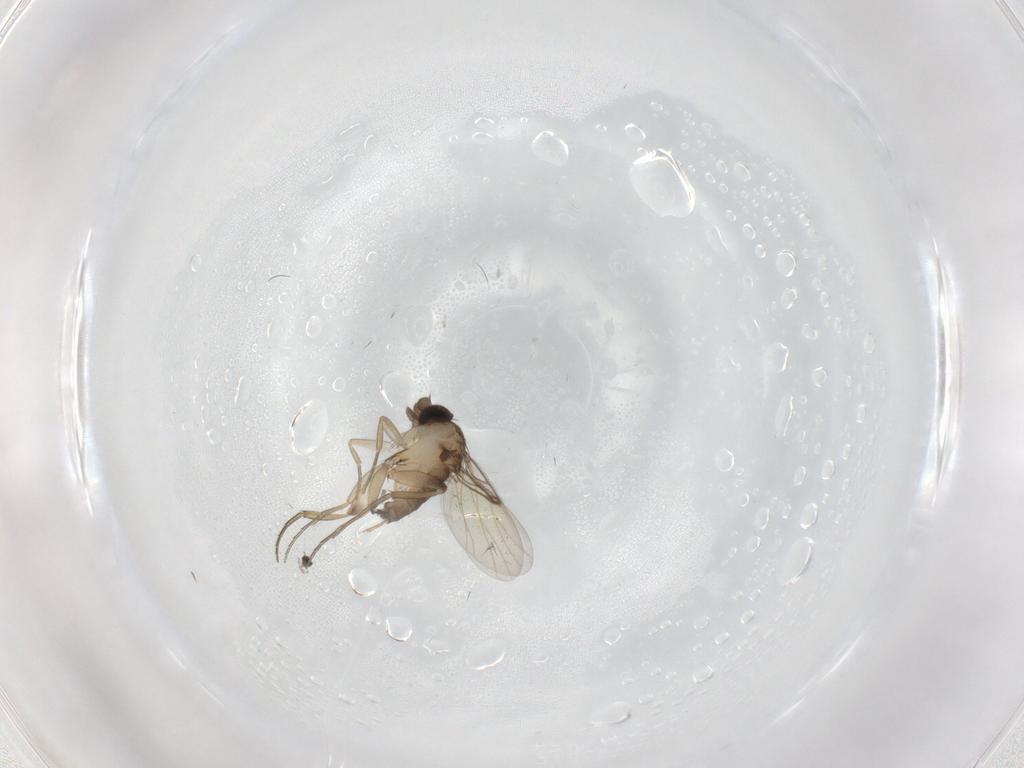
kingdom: Animalia
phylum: Arthropoda
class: Insecta
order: Diptera
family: Phoridae
